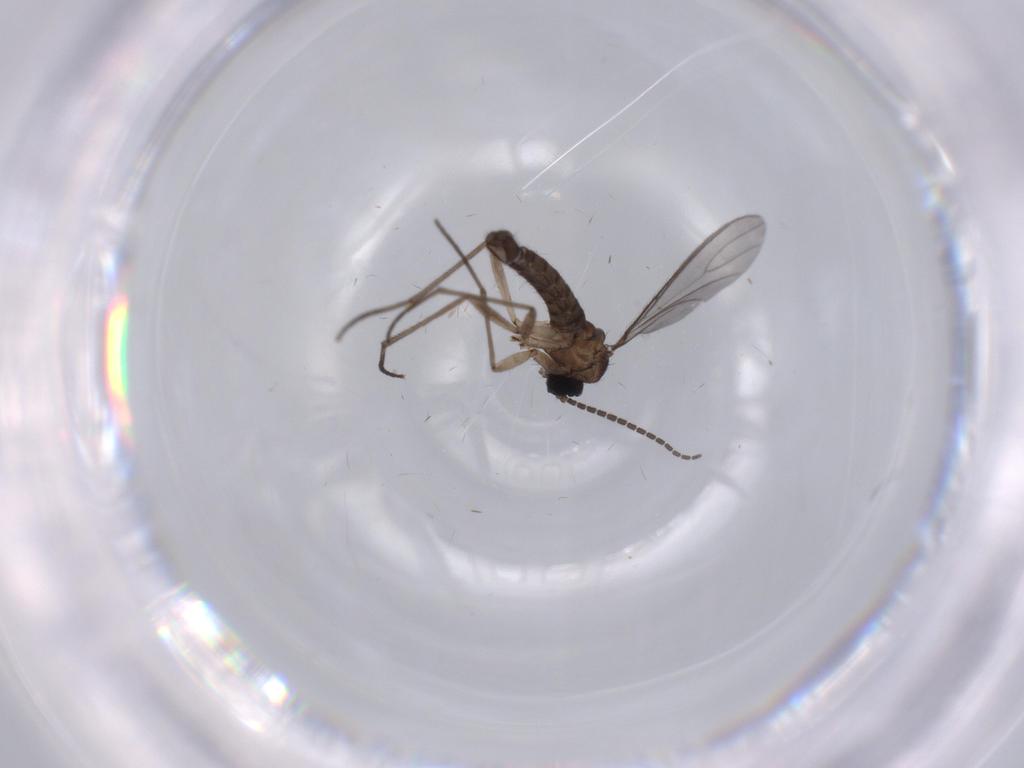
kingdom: Animalia
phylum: Arthropoda
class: Insecta
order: Diptera
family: Sciaridae
